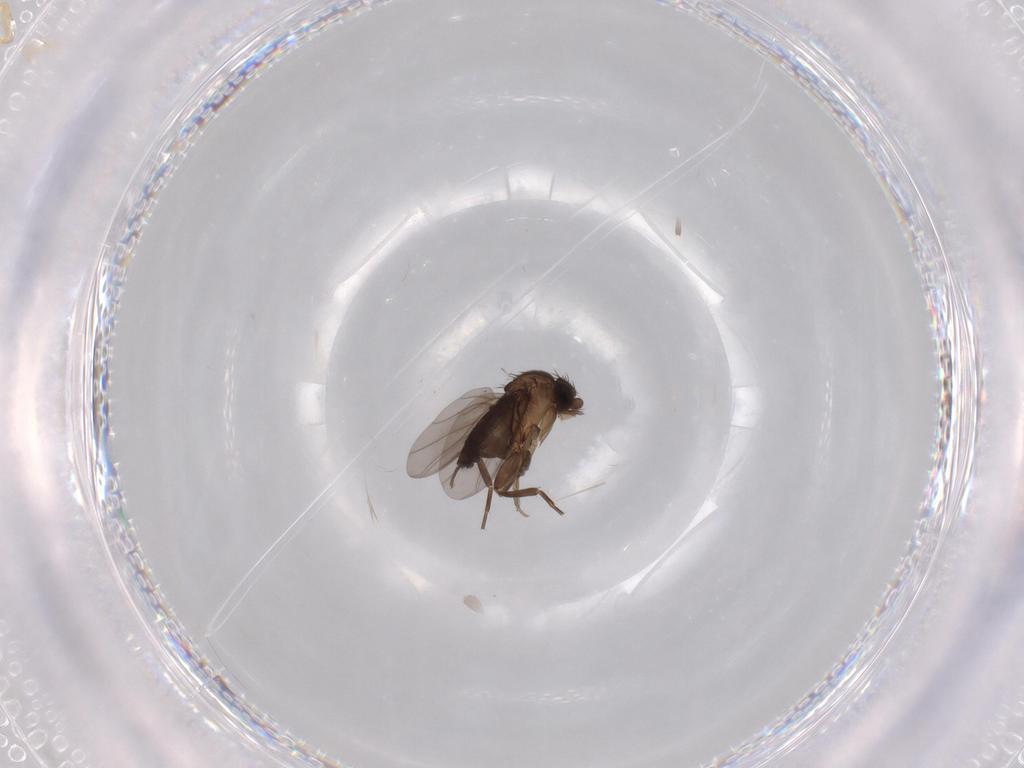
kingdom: Animalia
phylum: Arthropoda
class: Insecta
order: Diptera
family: Phoridae
